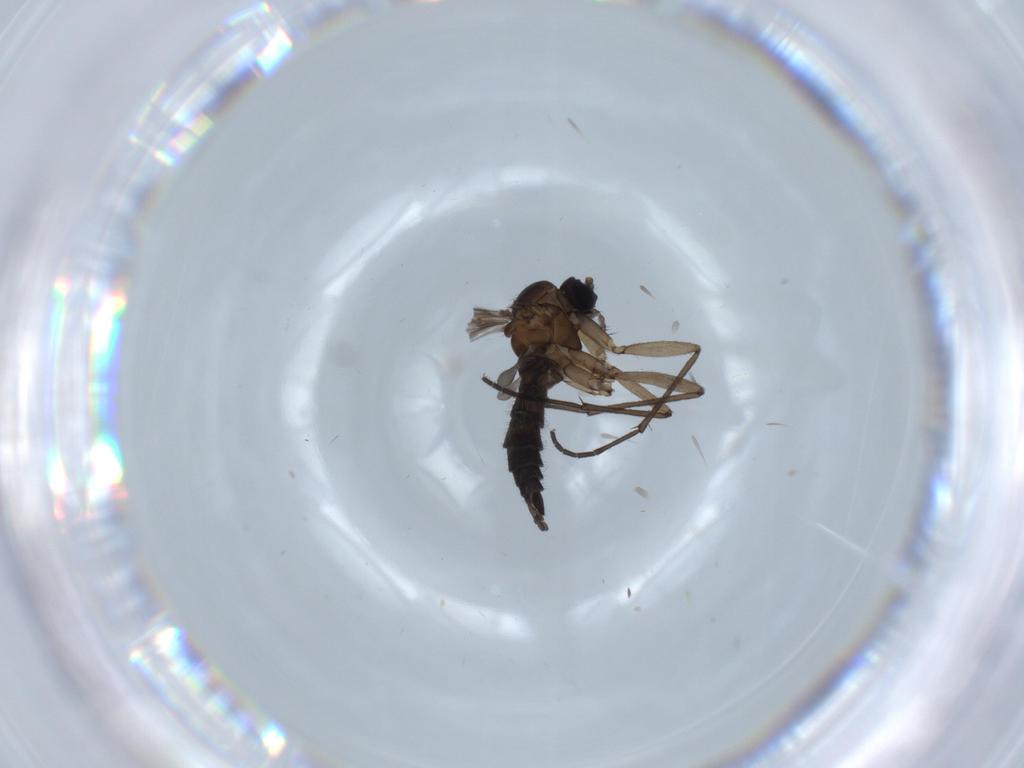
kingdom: Animalia
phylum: Arthropoda
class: Insecta
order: Diptera
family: Sciaridae
